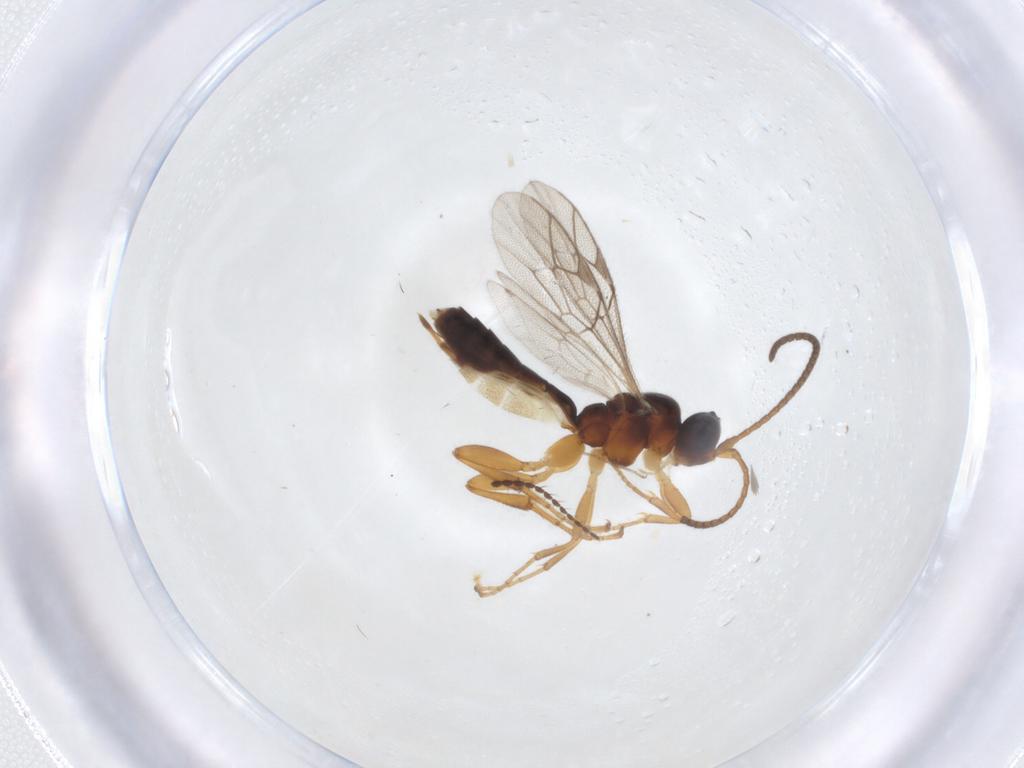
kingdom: Animalia
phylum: Arthropoda
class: Insecta
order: Hymenoptera
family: Ichneumonidae
